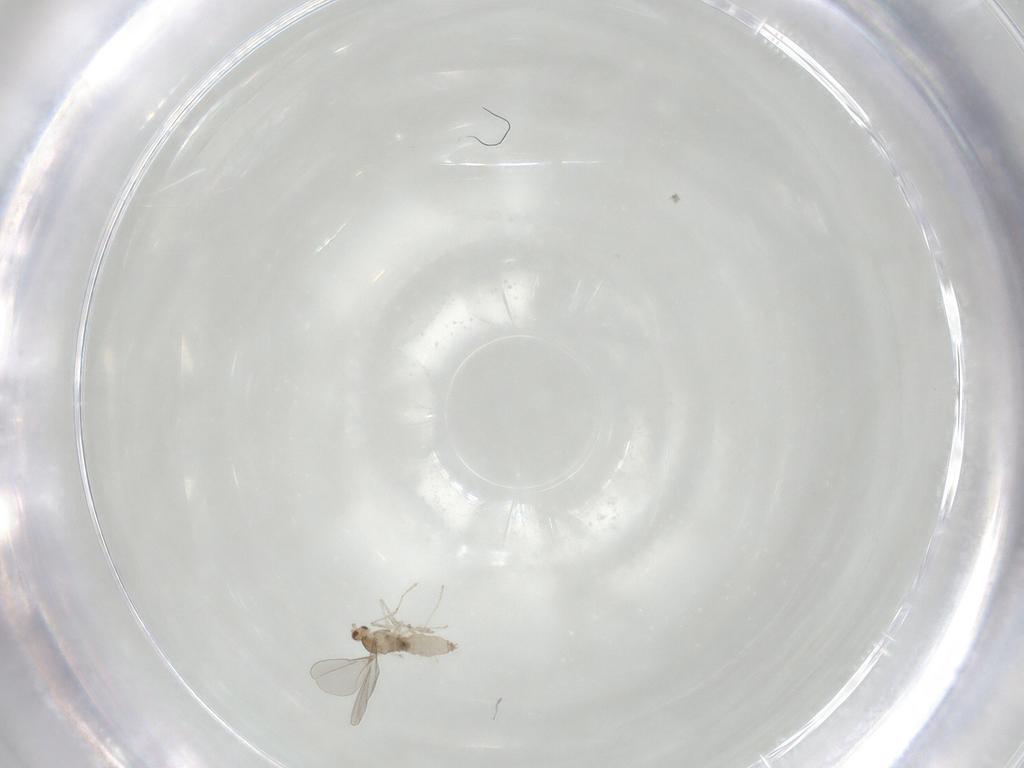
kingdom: Animalia
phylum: Arthropoda
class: Insecta
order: Diptera
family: Chironomidae
